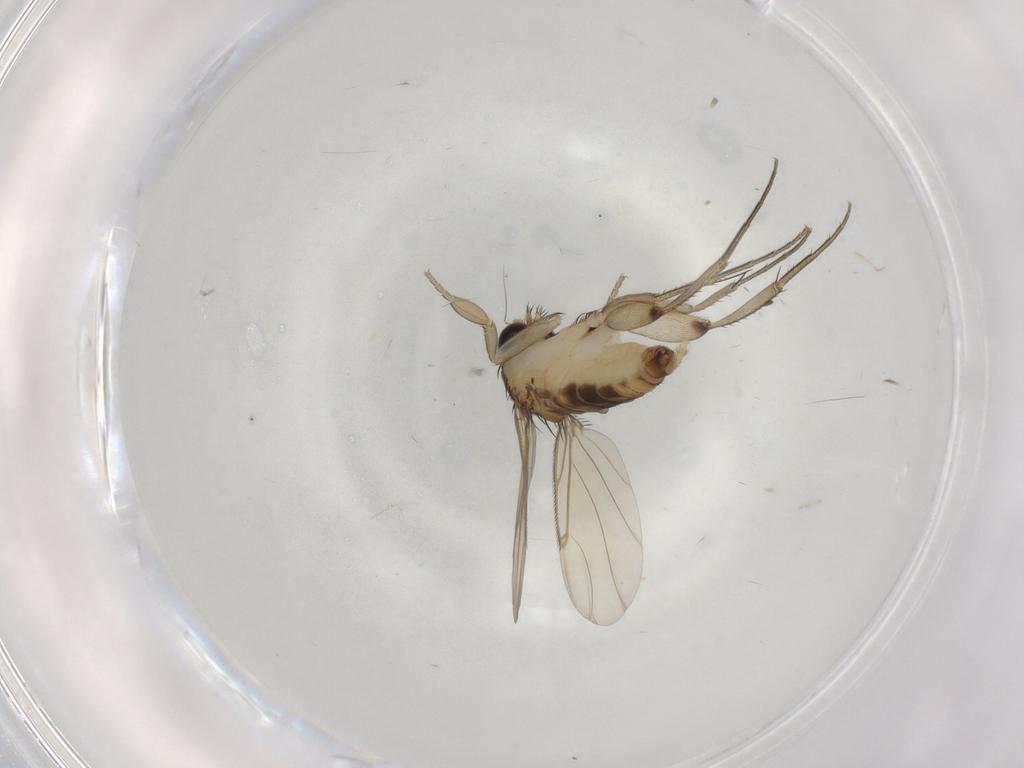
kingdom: Animalia
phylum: Arthropoda
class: Insecta
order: Diptera
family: Phoridae
